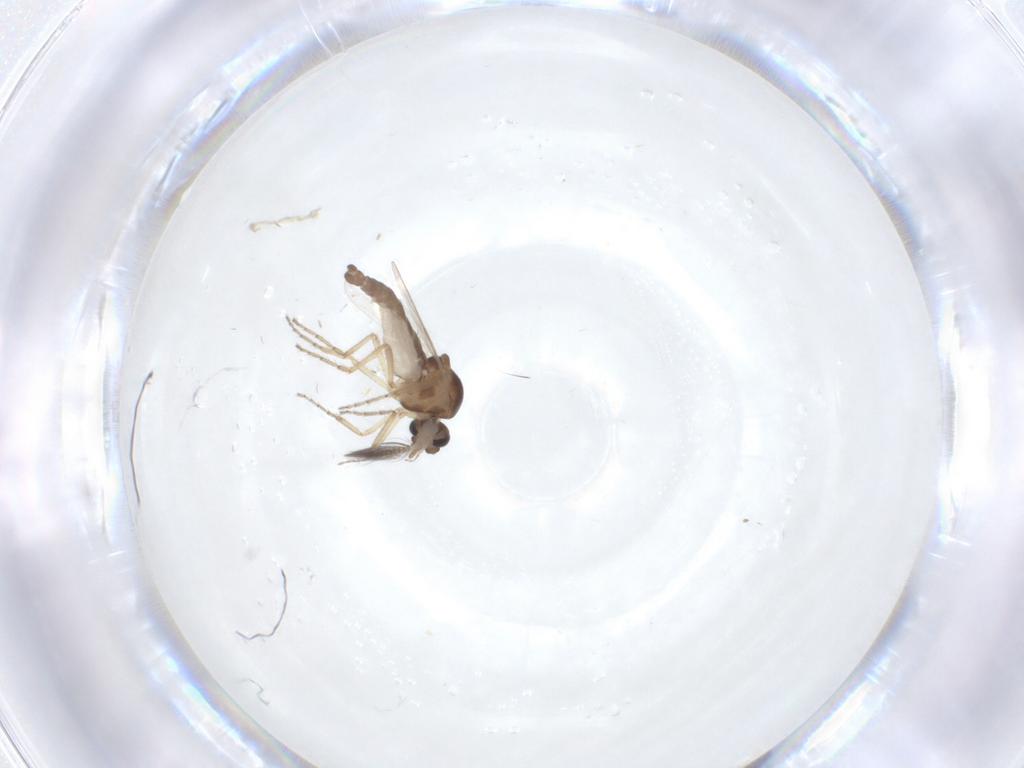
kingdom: Animalia
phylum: Arthropoda
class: Insecta
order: Diptera
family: Ceratopogonidae
